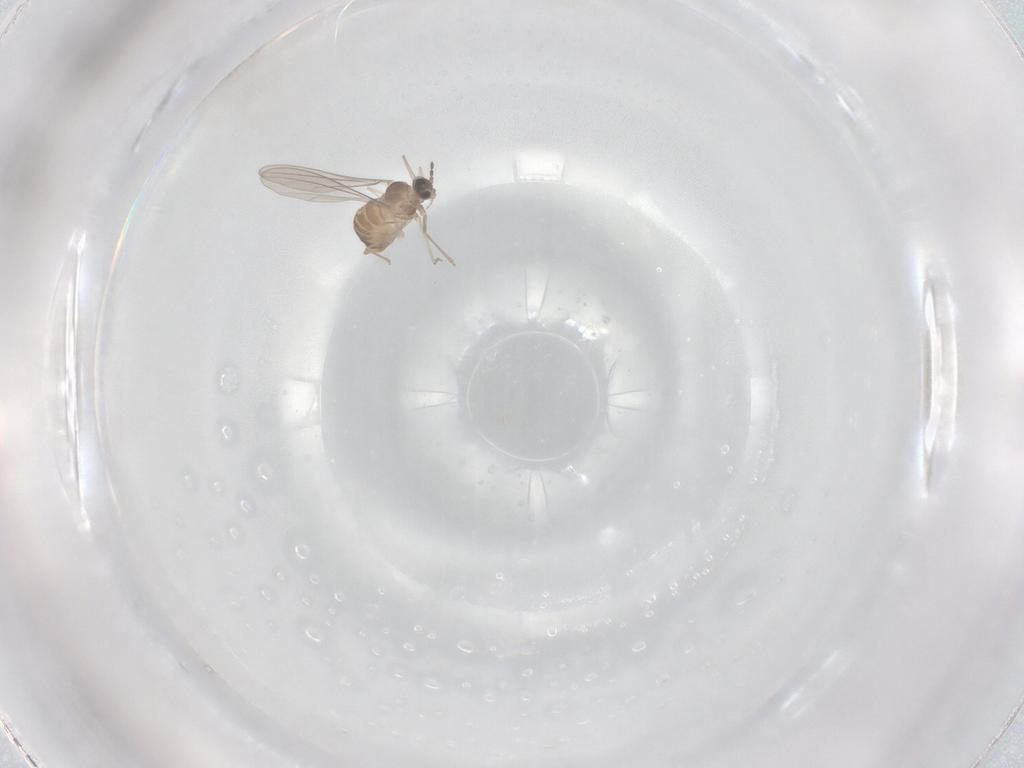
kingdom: Animalia
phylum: Arthropoda
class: Insecta
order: Diptera
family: Cecidomyiidae
